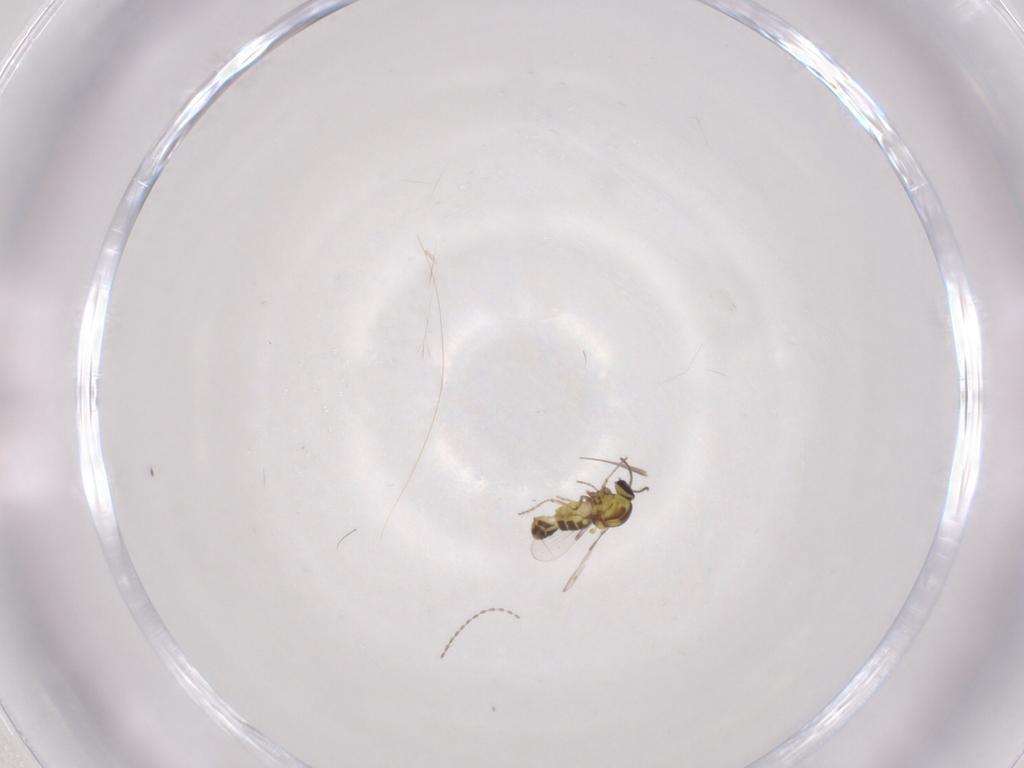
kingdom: Animalia
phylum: Arthropoda
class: Insecta
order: Diptera
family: Ceratopogonidae
